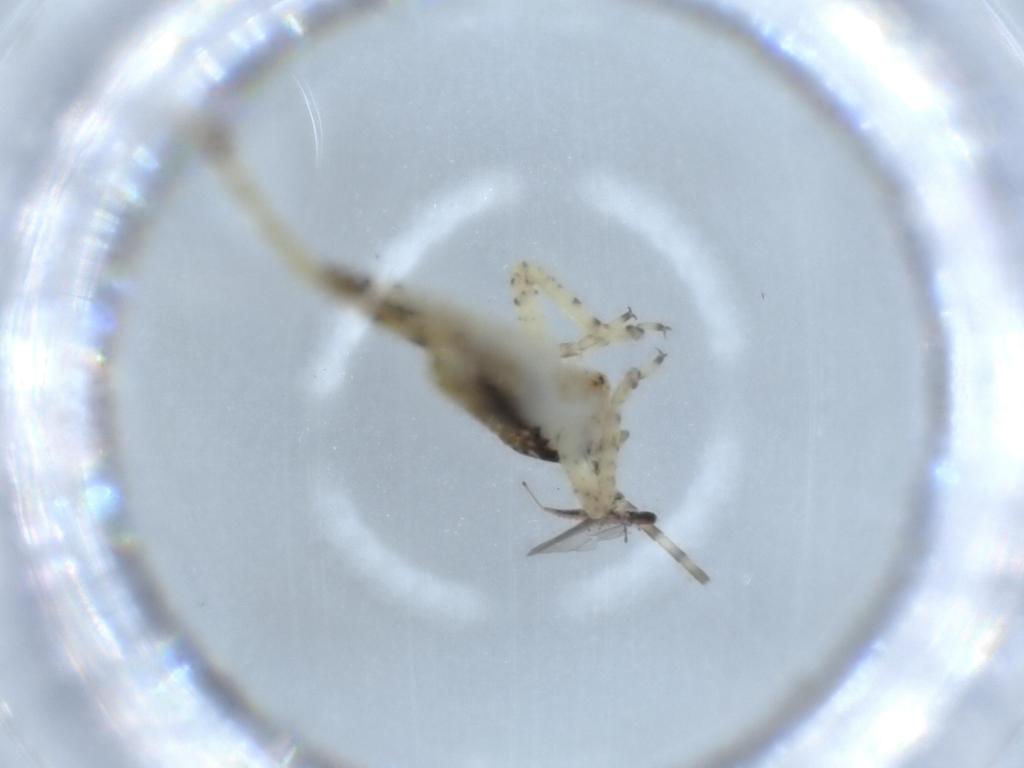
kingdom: Animalia
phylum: Arthropoda
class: Insecta
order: Orthoptera
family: Gryllidae
